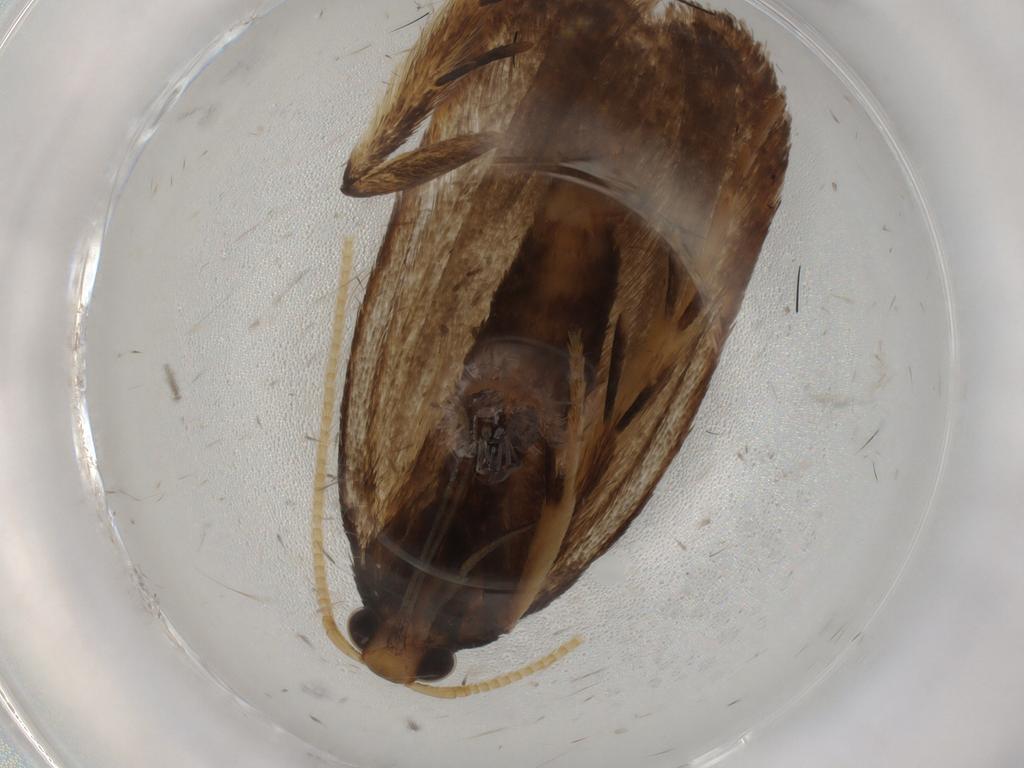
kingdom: Animalia
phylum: Arthropoda
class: Insecta
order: Lepidoptera
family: Lecithoceridae
